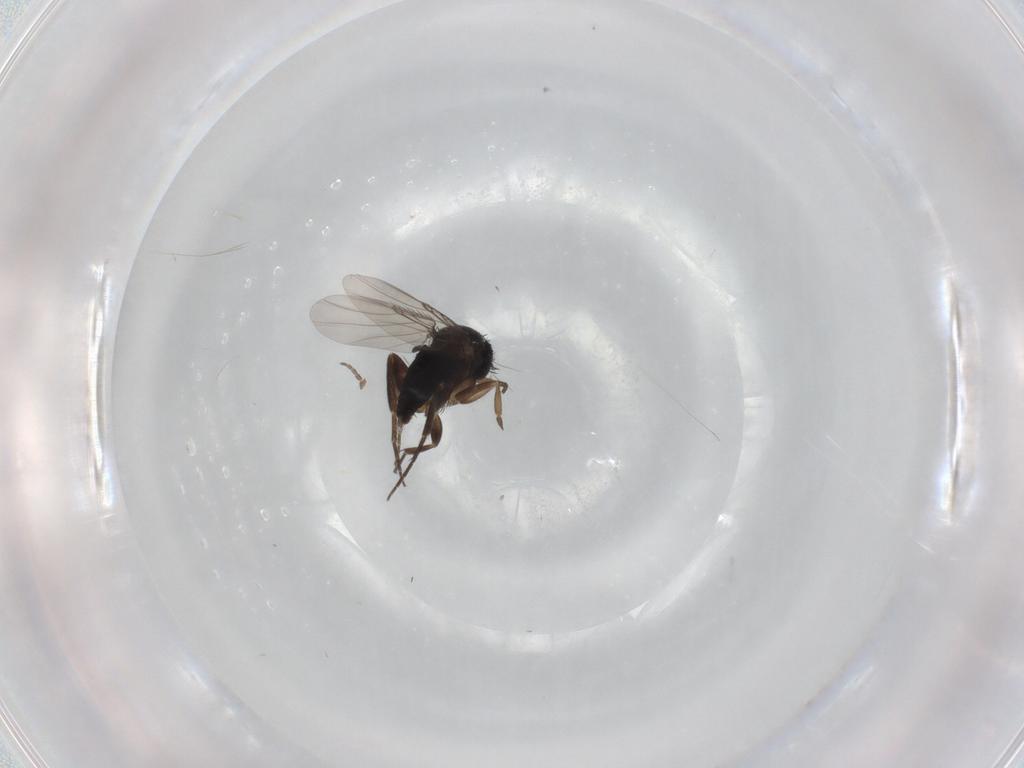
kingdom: Animalia
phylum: Arthropoda
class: Insecta
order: Diptera
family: Phoridae
